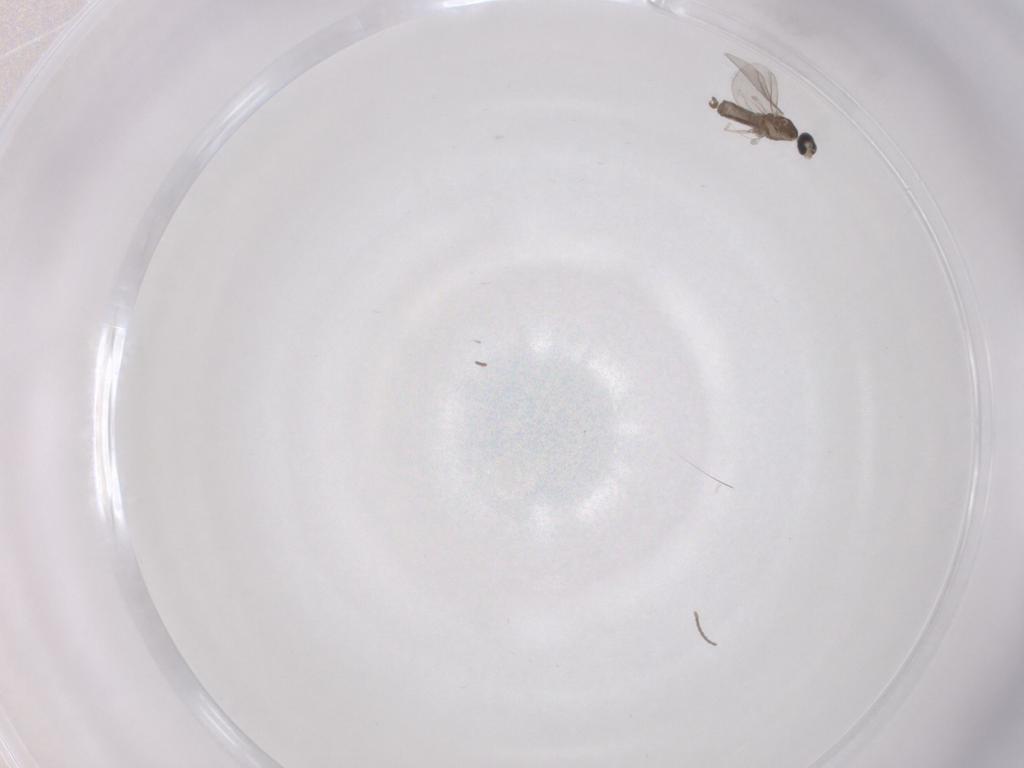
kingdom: Animalia
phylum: Arthropoda
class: Insecta
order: Diptera
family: Cecidomyiidae
